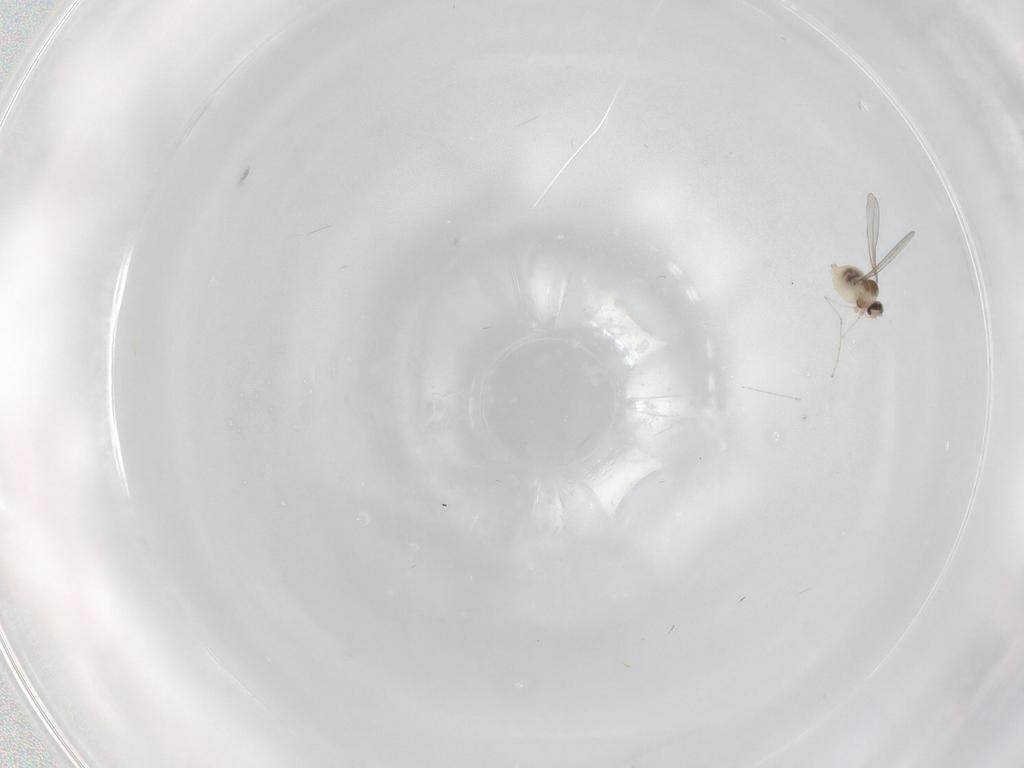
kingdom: Animalia
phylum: Arthropoda
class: Insecta
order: Diptera
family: Cecidomyiidae
